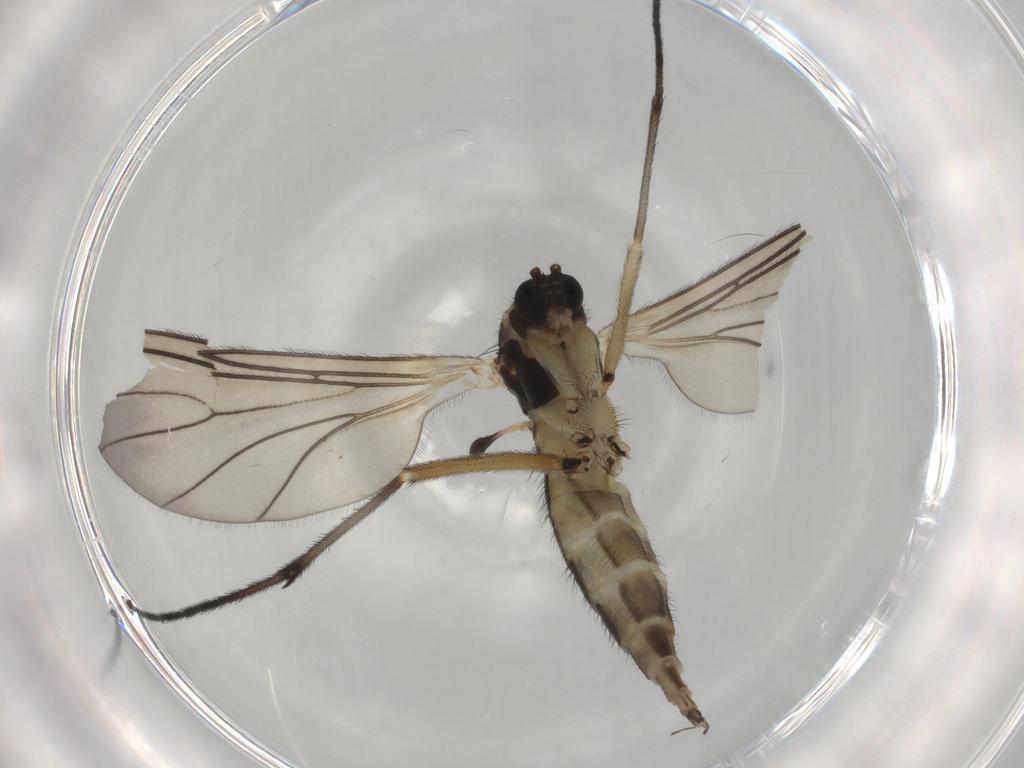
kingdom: Animalia
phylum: Arthropoda
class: Insecta
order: Diptera
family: Sciaridae
